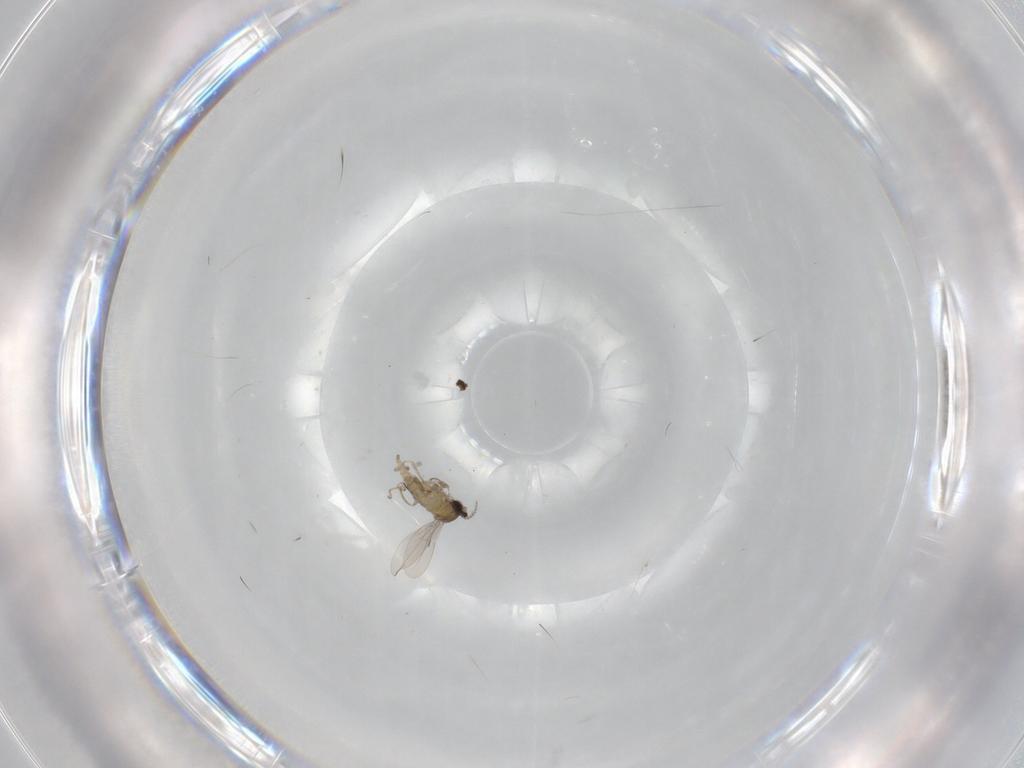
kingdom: Animalia
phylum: Arthropoda
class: Insecta
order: Diptera
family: Cecidomyiidae
